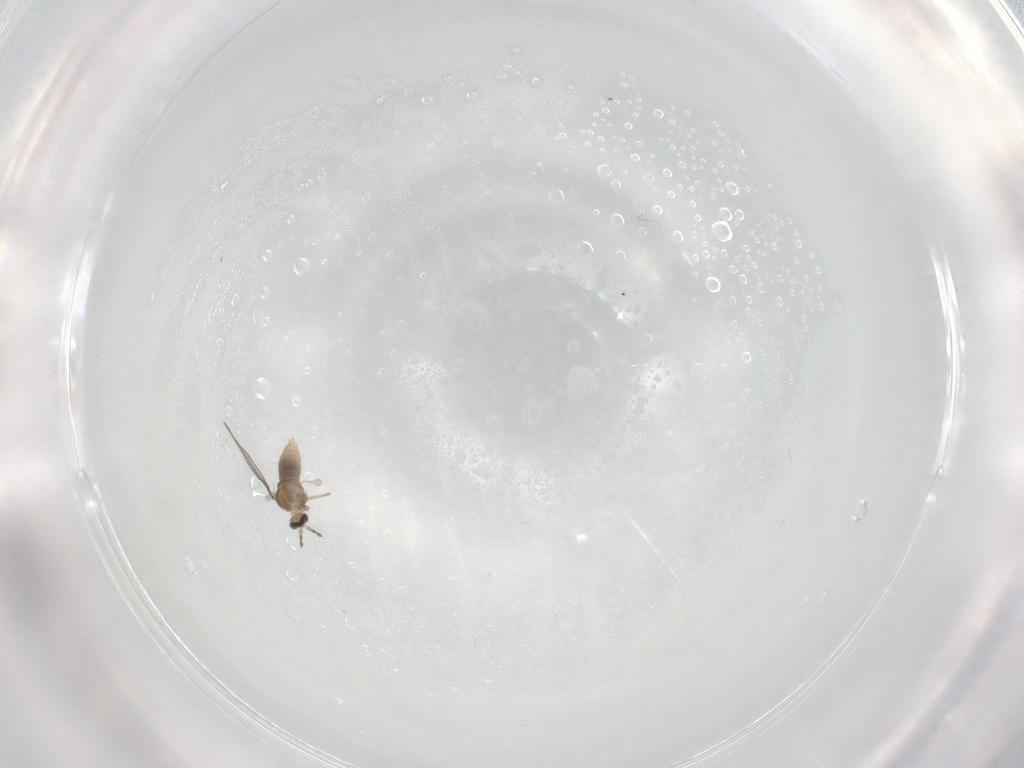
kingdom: Animalia
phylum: Arthropoda
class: Insecta
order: Diptera
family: Cecidomyiidae
